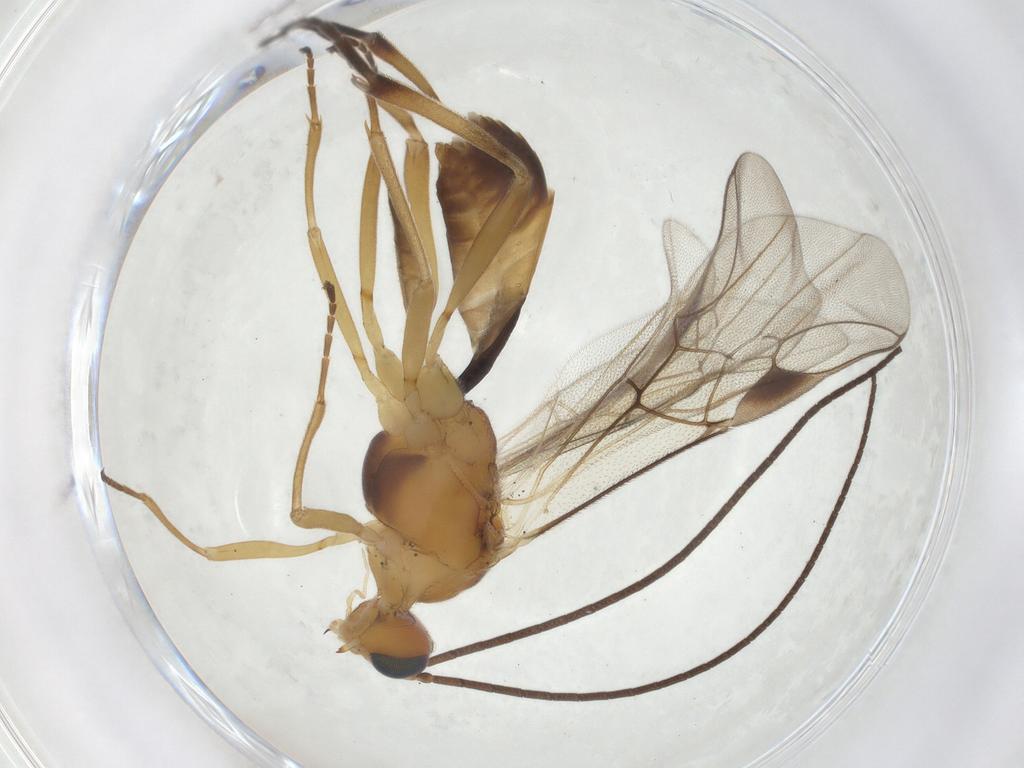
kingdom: Animalia
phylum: Arthropoda
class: Insecta
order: Hymenoptera
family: Braconidae
